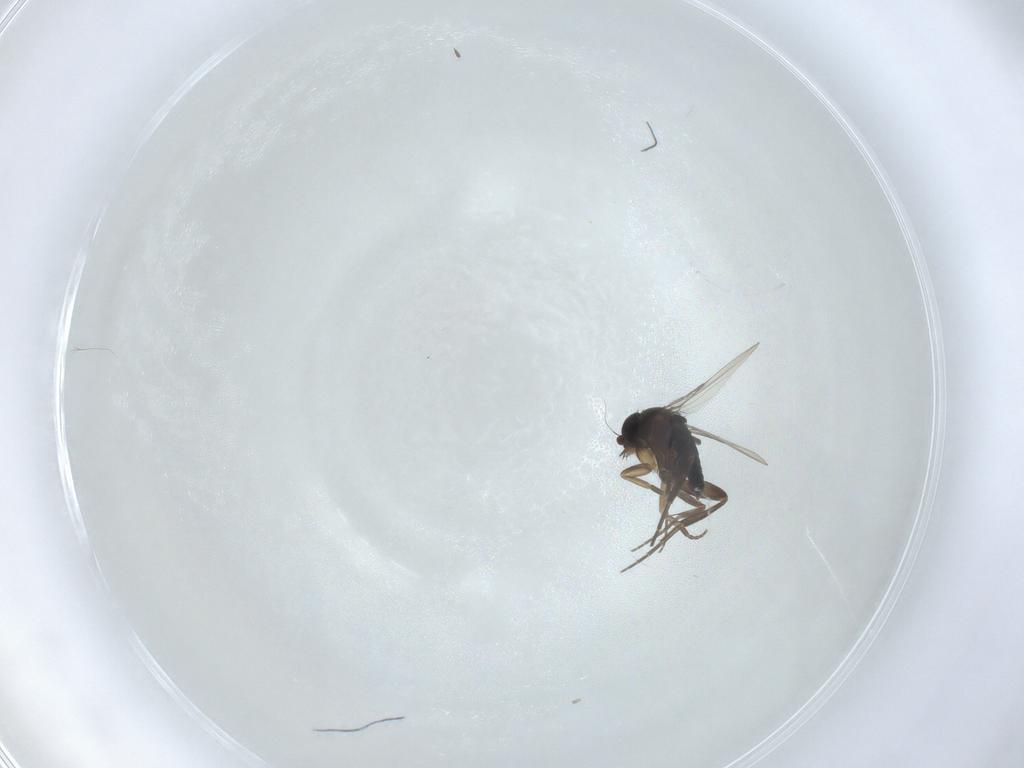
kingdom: Animalia
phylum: Arthropoda
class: Insecta
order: Diptera
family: Phoridae
